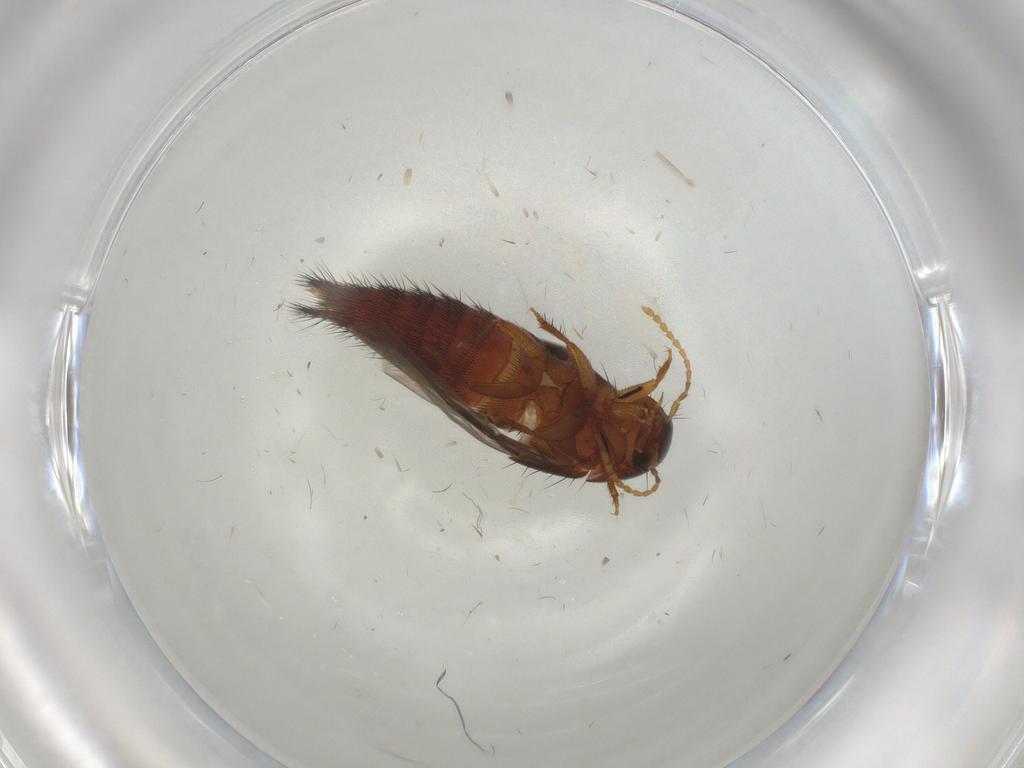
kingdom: Animalia
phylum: Arthropoda
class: Insecta
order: Coleoptera
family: Staphylinidae
